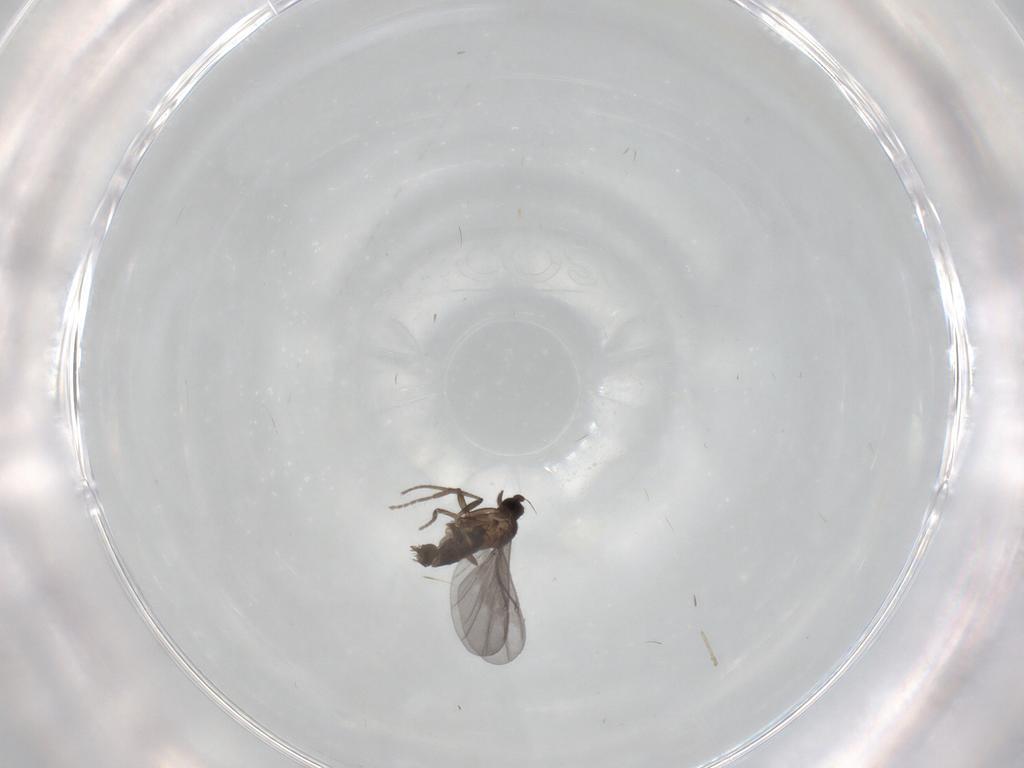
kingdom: Animalia
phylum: Arthropoda
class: Insecta
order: Diptera
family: Phoridae
